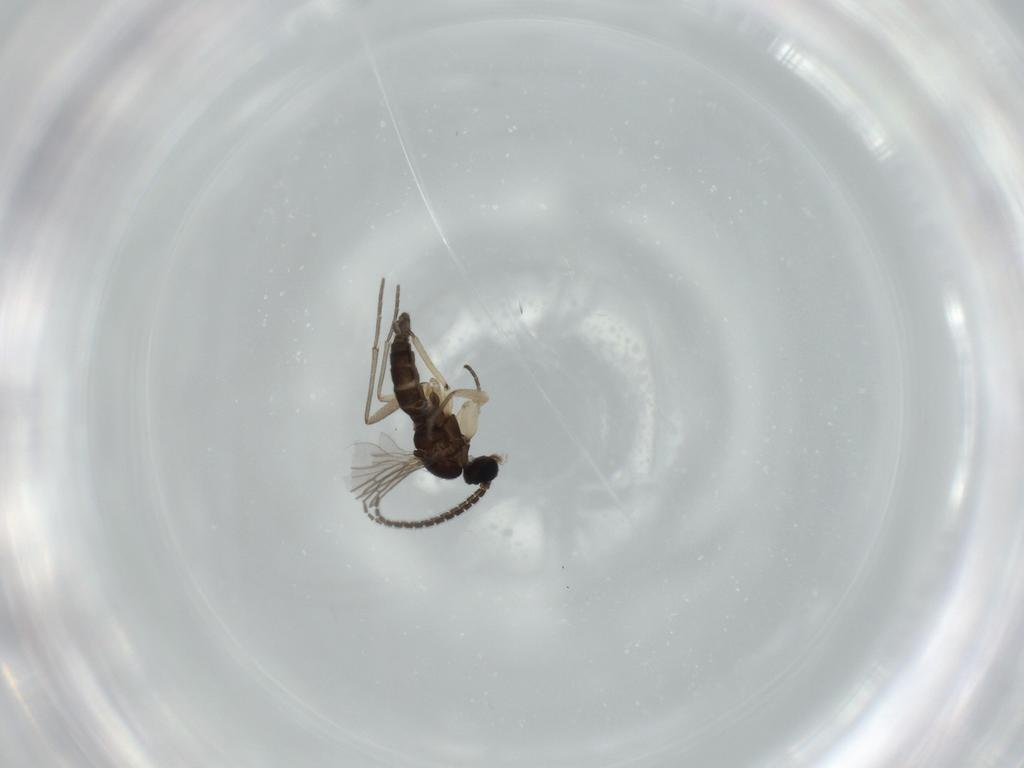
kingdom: Animalia
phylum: Arthropoda
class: Insecta
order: Diptera
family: Sciaridae
